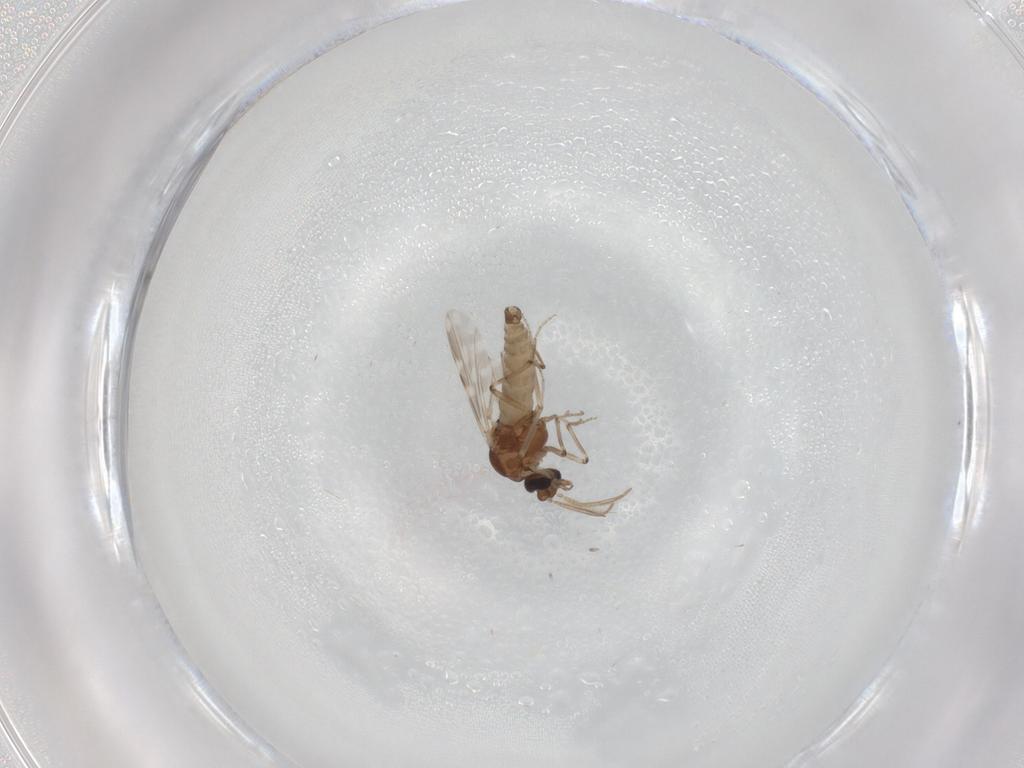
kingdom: Animalia
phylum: Arthropoda
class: Insecta
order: Diptera
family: Ceratopogonidae
